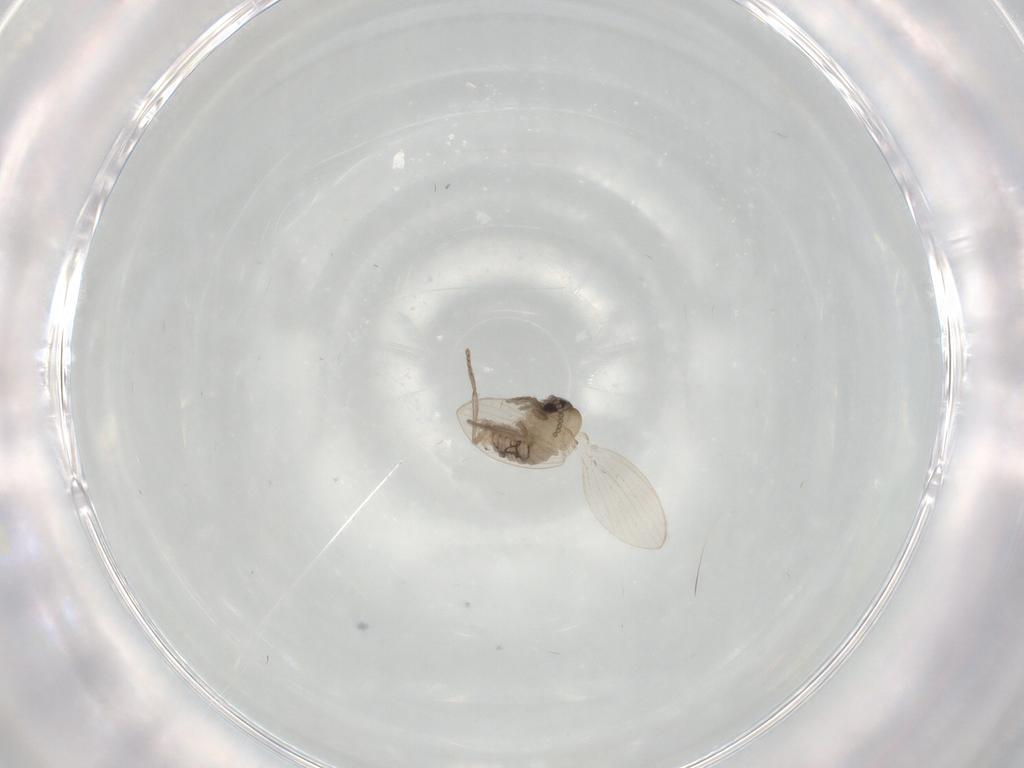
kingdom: Animalia
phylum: Arthropoda
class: Insecta
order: Diptera
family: Psychodidae
